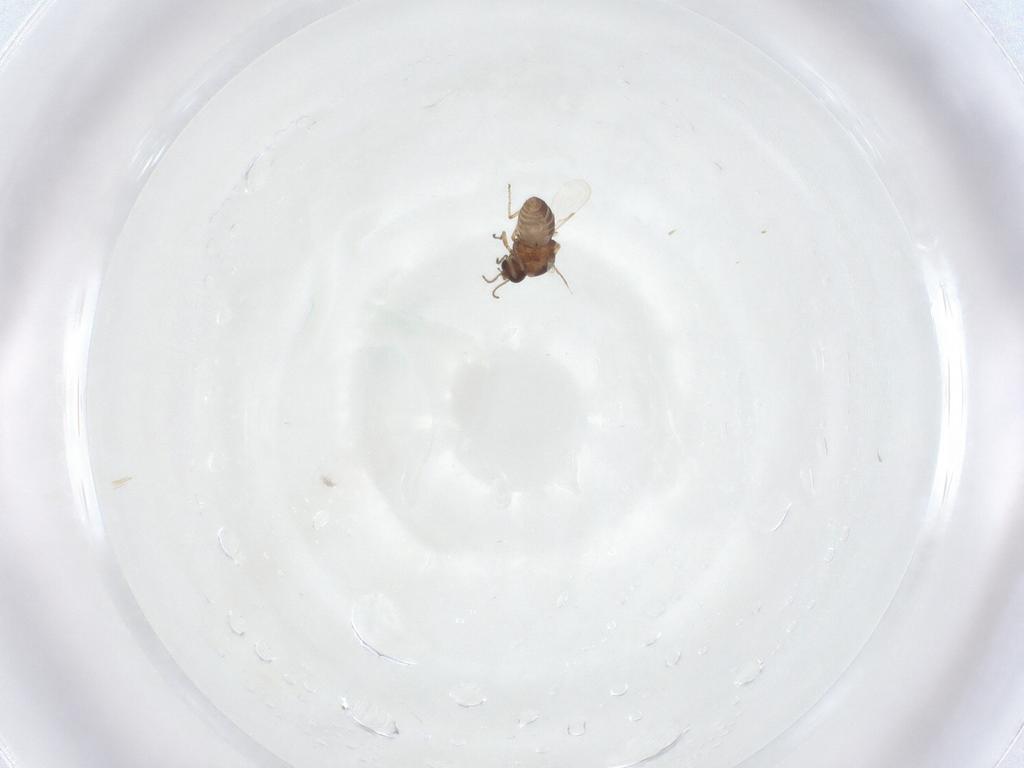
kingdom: Animalia
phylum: Arthropoda
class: Insecta
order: Diptera
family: Ceratopogonidae
